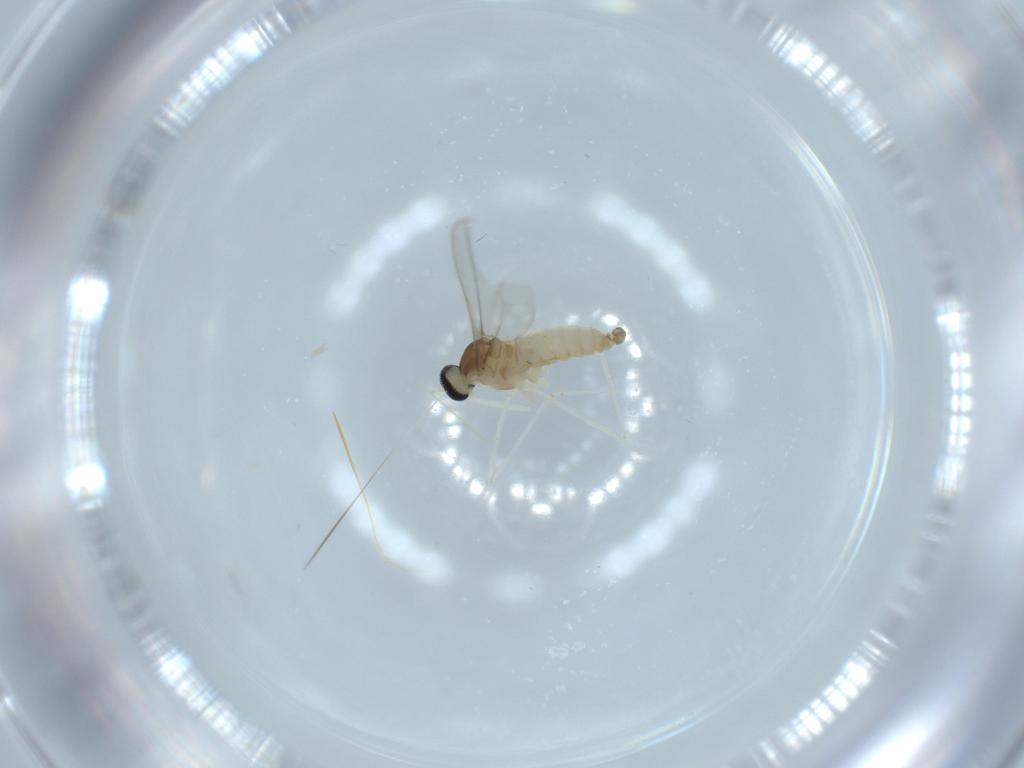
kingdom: Animalia
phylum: Arthropoda
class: Insecta
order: Diptera
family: Cecidomyiidae
